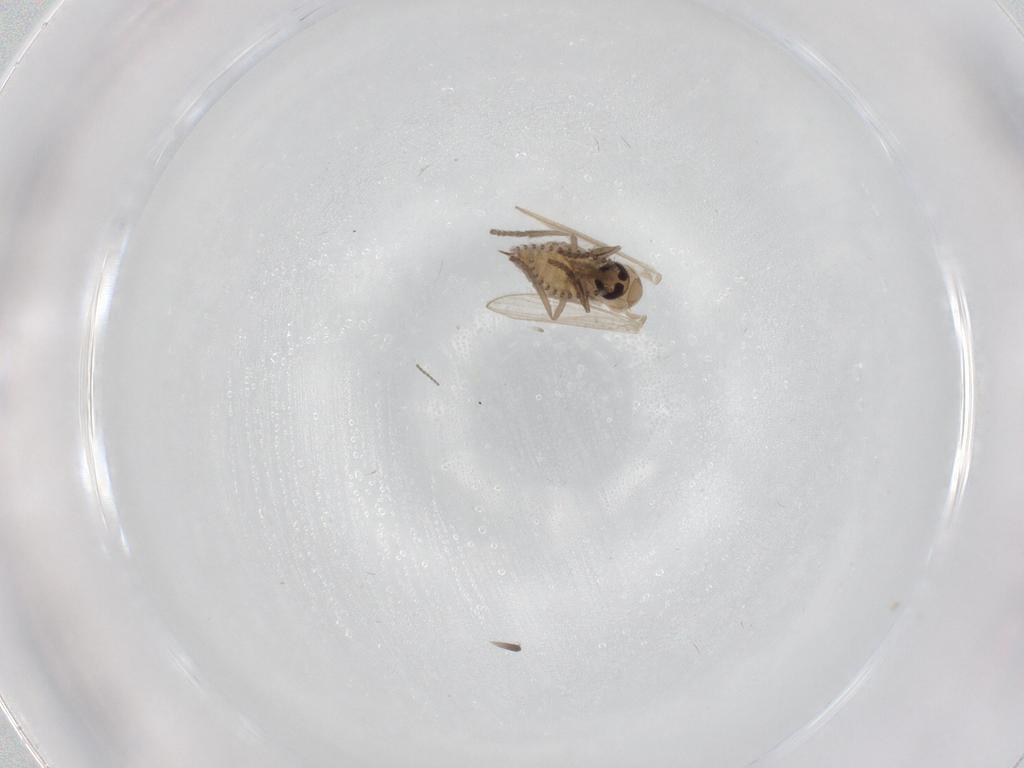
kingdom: Animalia
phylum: Arthropoda
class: Insecta
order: Diptera
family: Psychodidae
